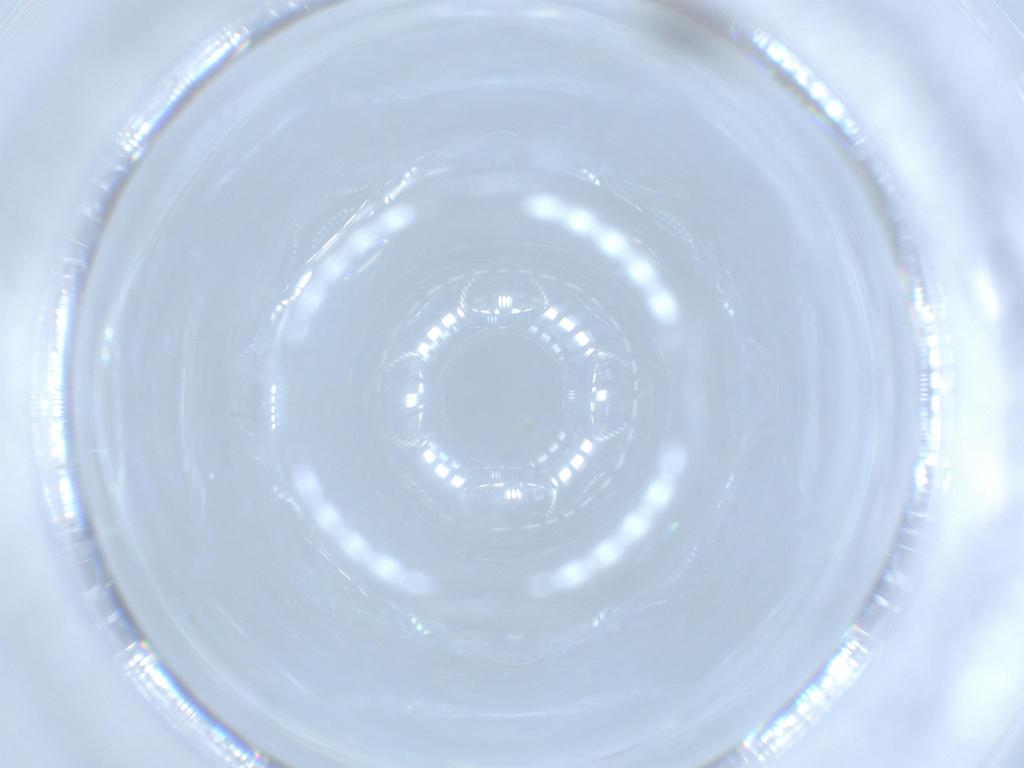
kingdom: Animalia
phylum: Arthropoda
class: Insecta
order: Diptera
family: Ceratopogonidae
